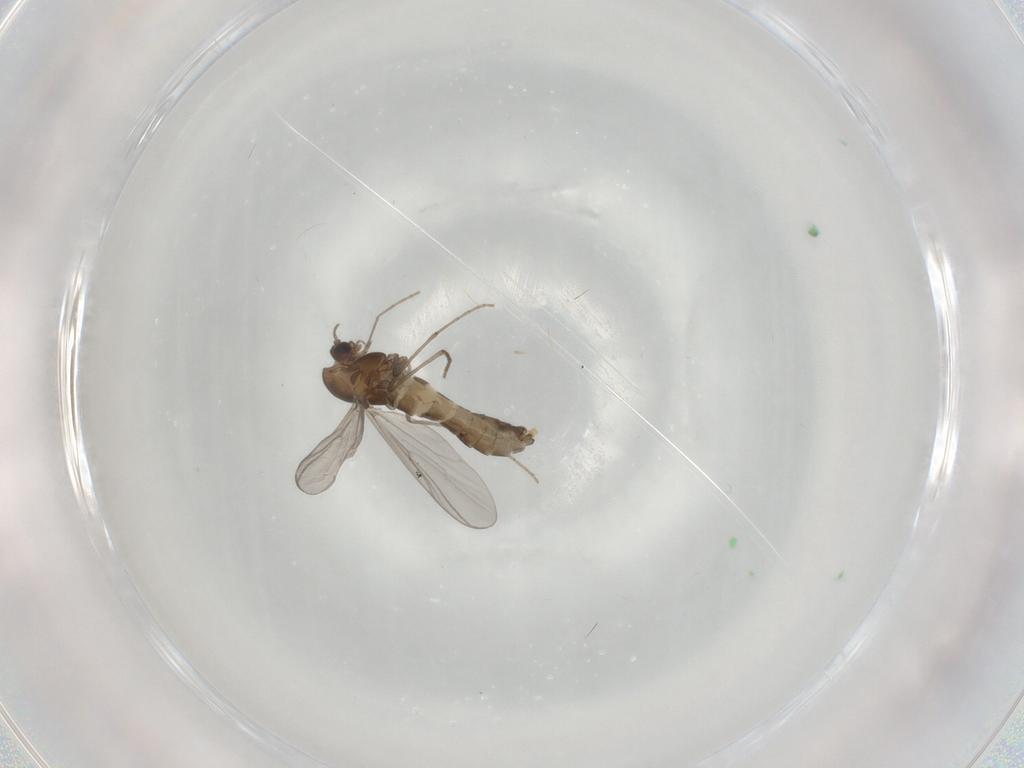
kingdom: Animalia
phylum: Arthropoda
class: Insecta
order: Diptera
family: Chironomidae
